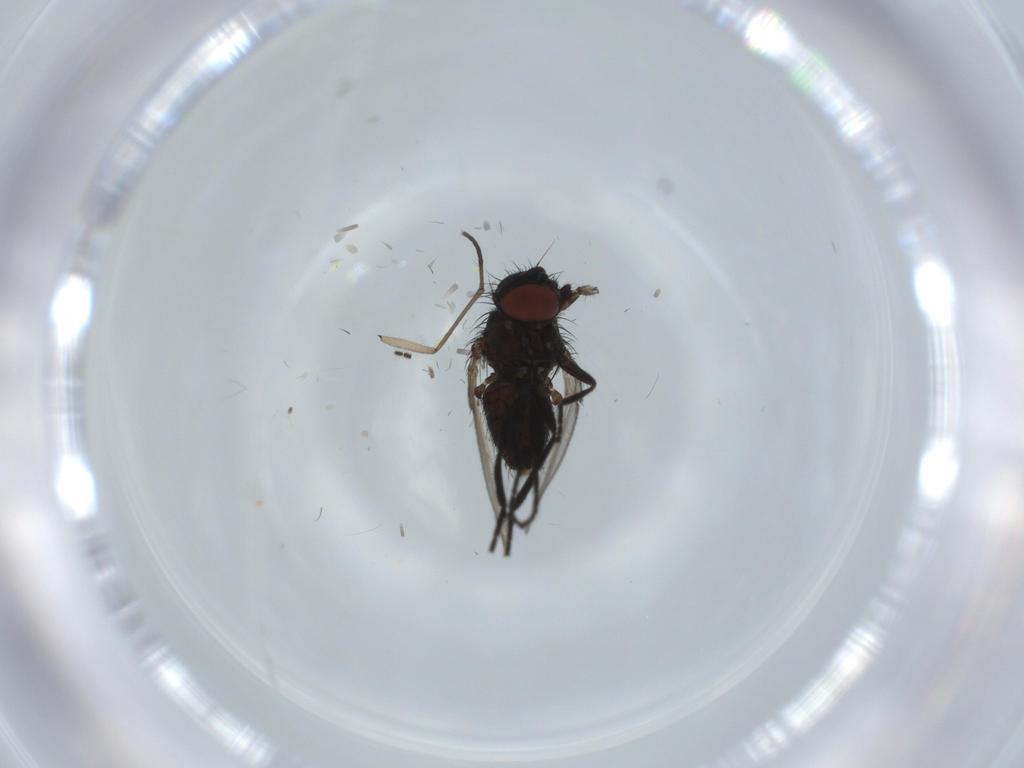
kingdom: Animalia
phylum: Arthropoda
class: Insecta
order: Diptera
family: Milichiidae
